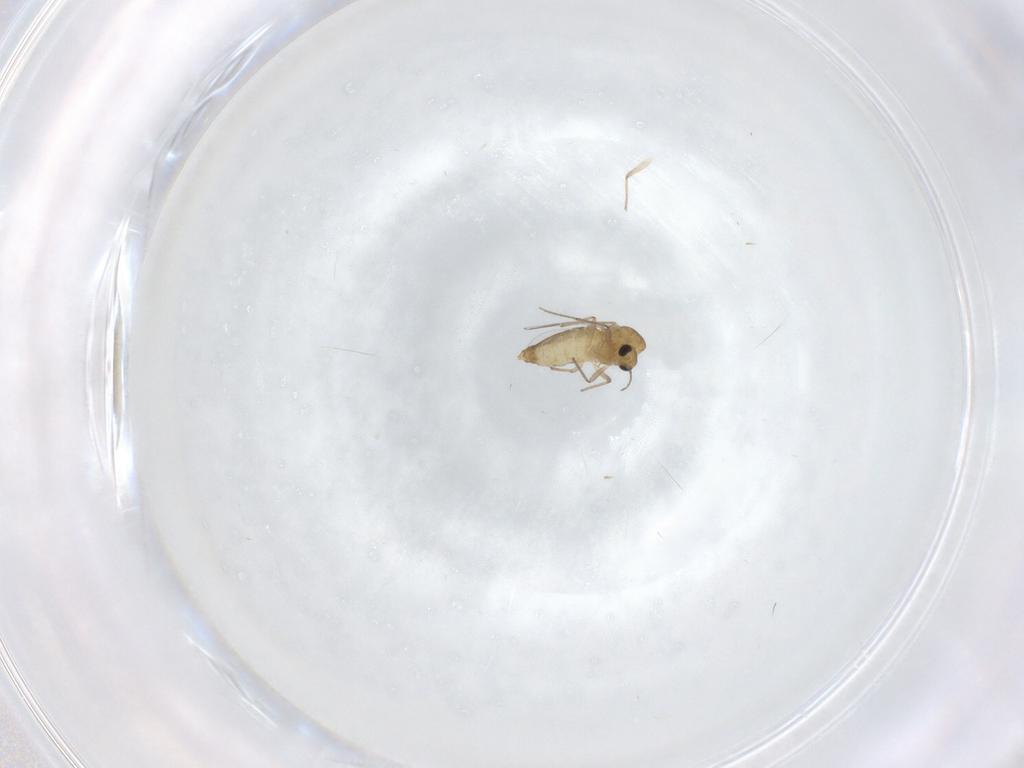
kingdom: Animalia
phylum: Arthropoda
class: Insecta
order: Diptera
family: Chironomidae
